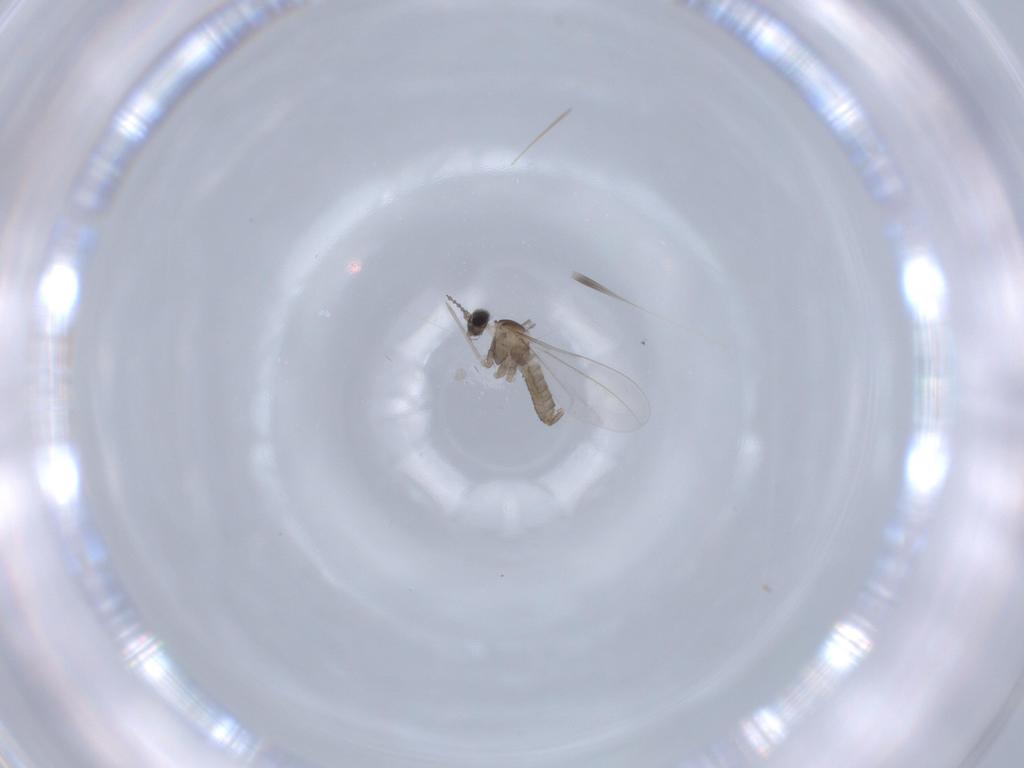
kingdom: Animalia
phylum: Arthropoda
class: Insecta
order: Diptera
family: Cecidomyiidae
